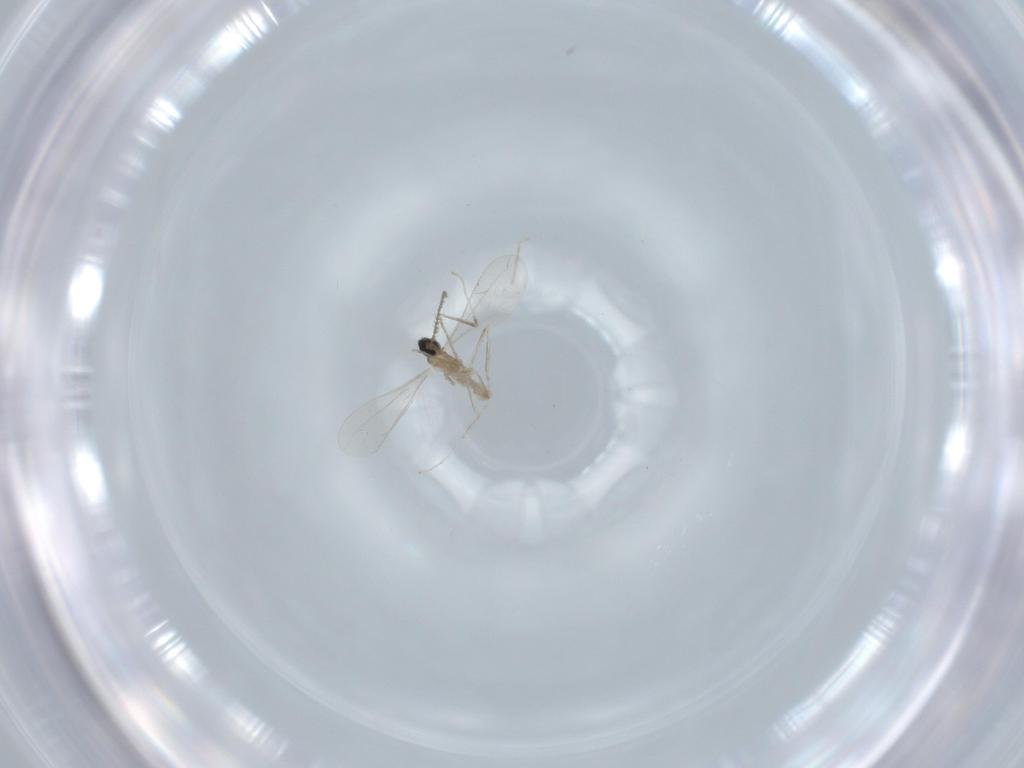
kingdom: Animalia
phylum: Arthropoda
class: Insecta
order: Diptera
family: Cecidomyiidae
